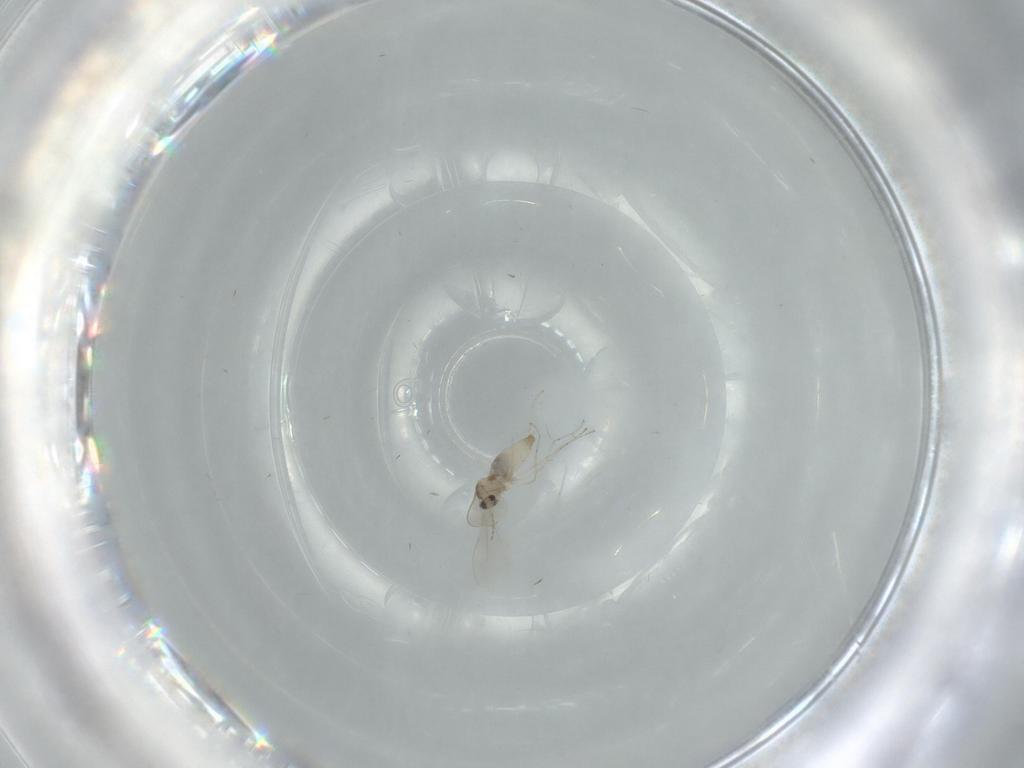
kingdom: Animalia
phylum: Arthropoda
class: Insecta
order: Diptera
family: Cecidomyiidae
